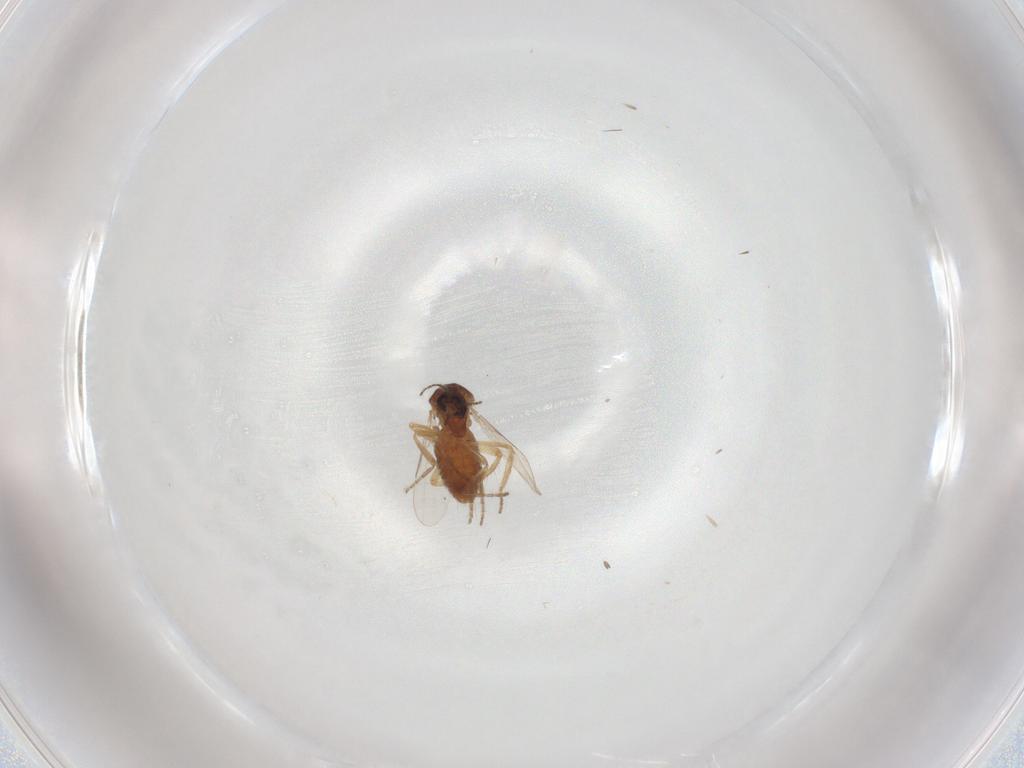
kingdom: Animalia
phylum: Arthropoda
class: Insecta
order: Diptera
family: Ceratopogonidae
